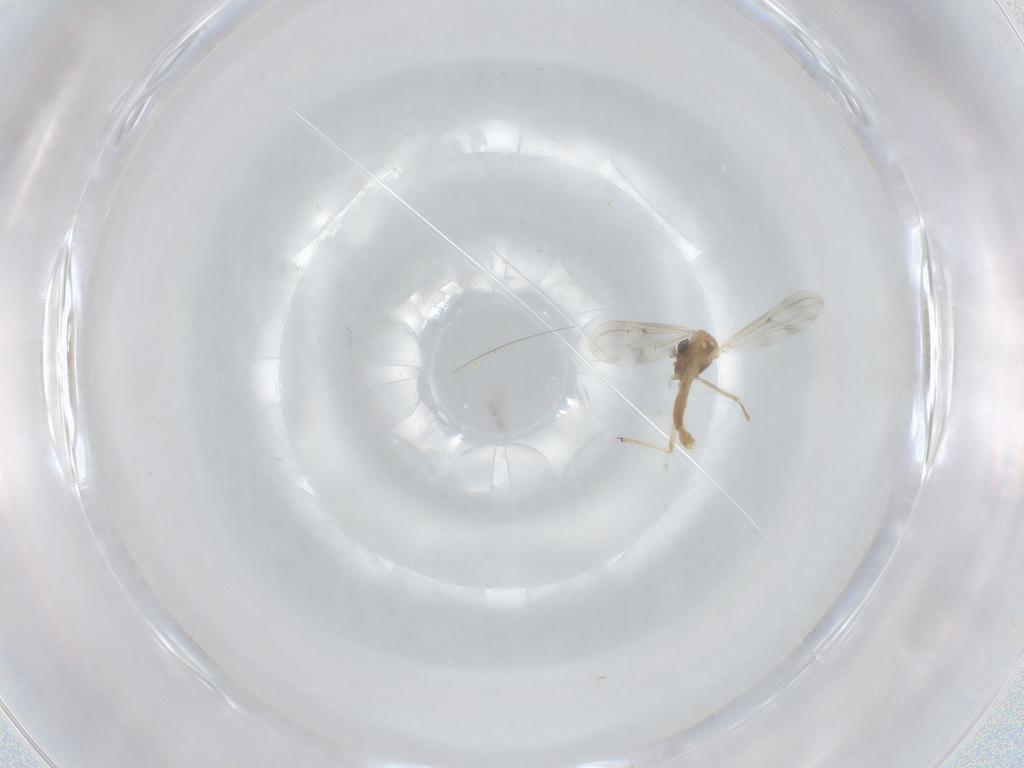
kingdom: Animalia
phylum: Arthropoda
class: Insecta
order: Diptera
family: Chironomidae
